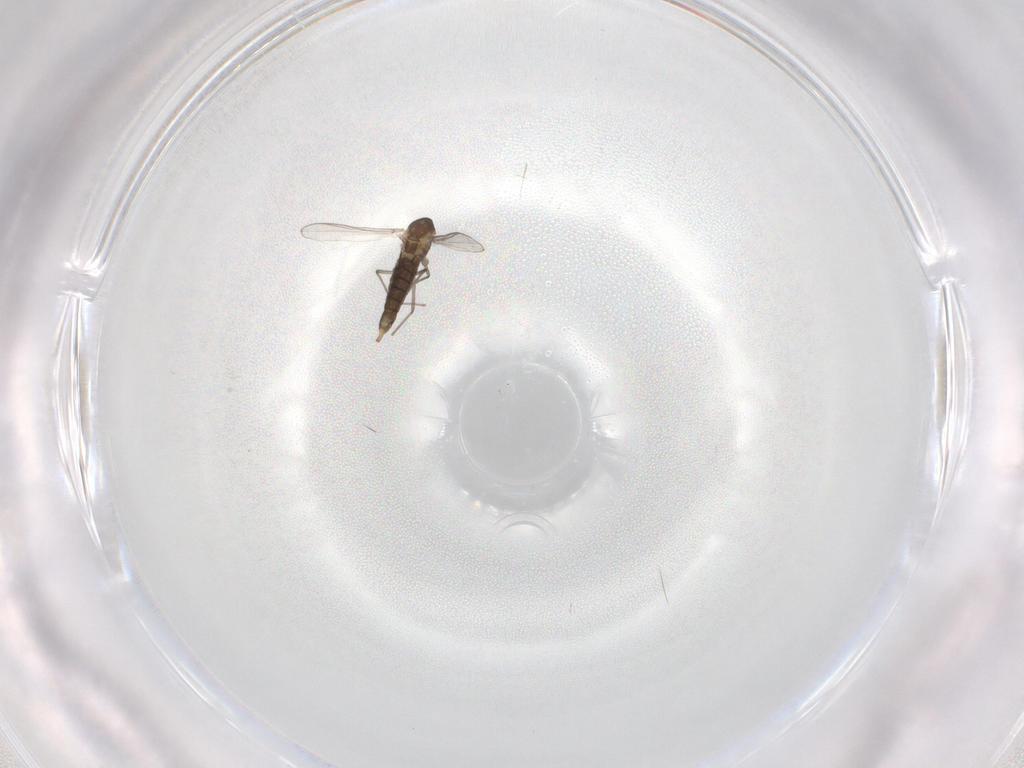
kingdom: Animalia
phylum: Arthropoda
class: Insecta
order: Diptera
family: Chironomidae
